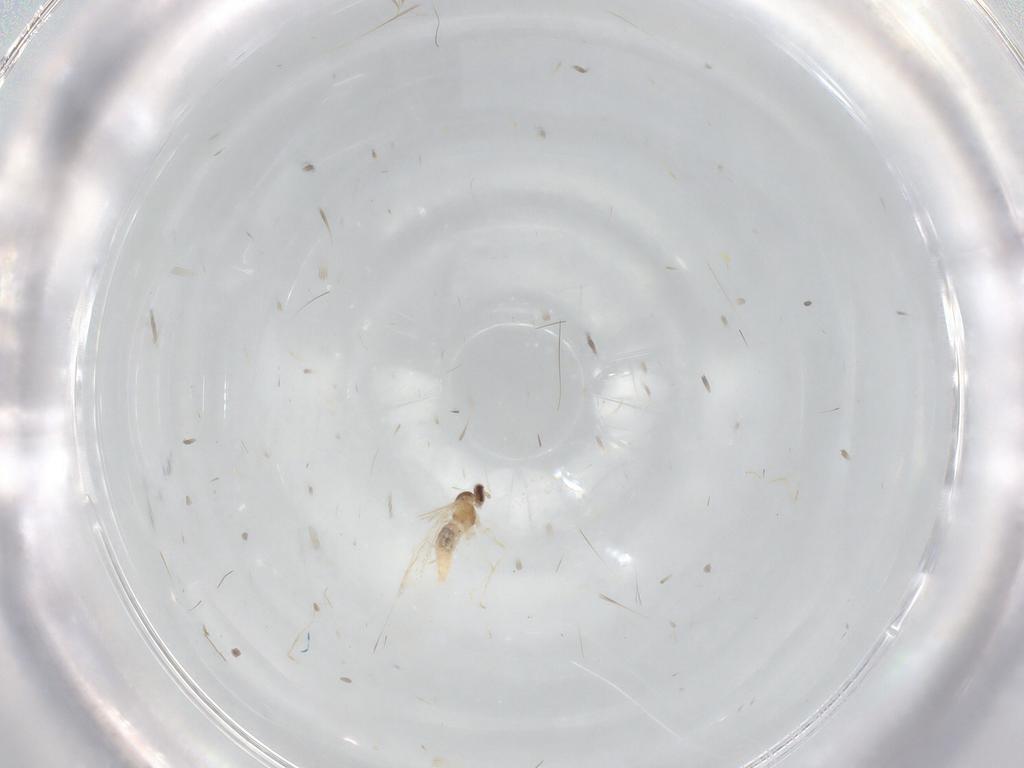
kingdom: Animalia
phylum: Arthropoda
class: Insecta
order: Diptera
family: Cecidomyiidae
